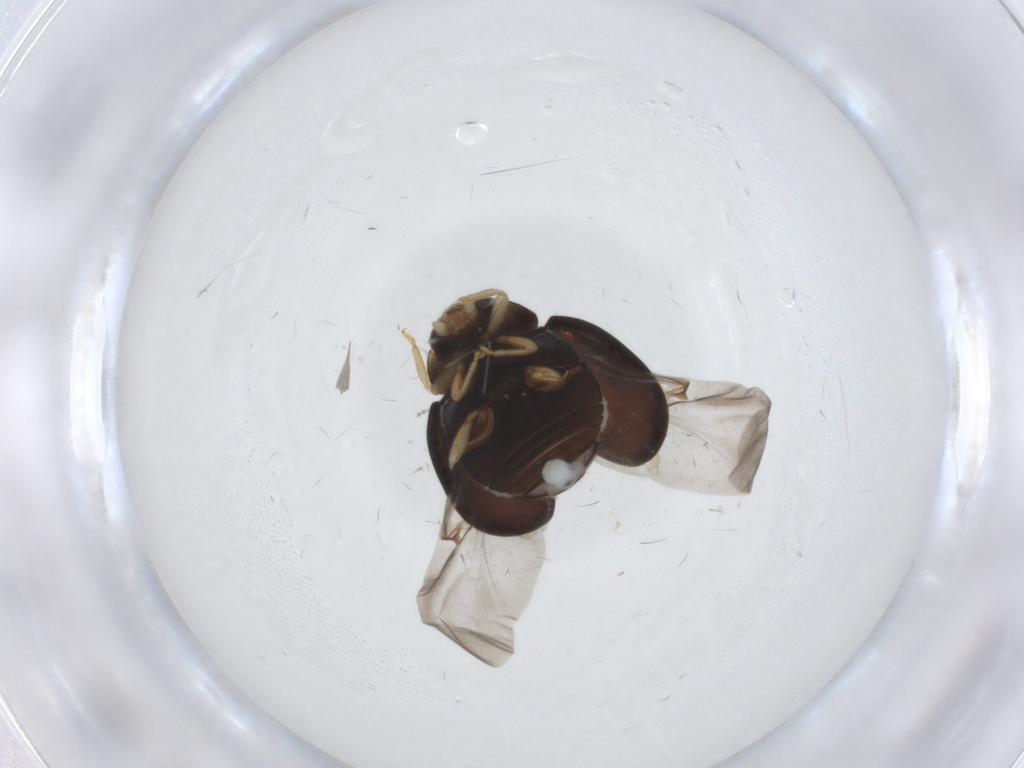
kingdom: Animalia
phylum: Arthropoda
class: Insecta
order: Coleoptera
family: Coccinellidae
